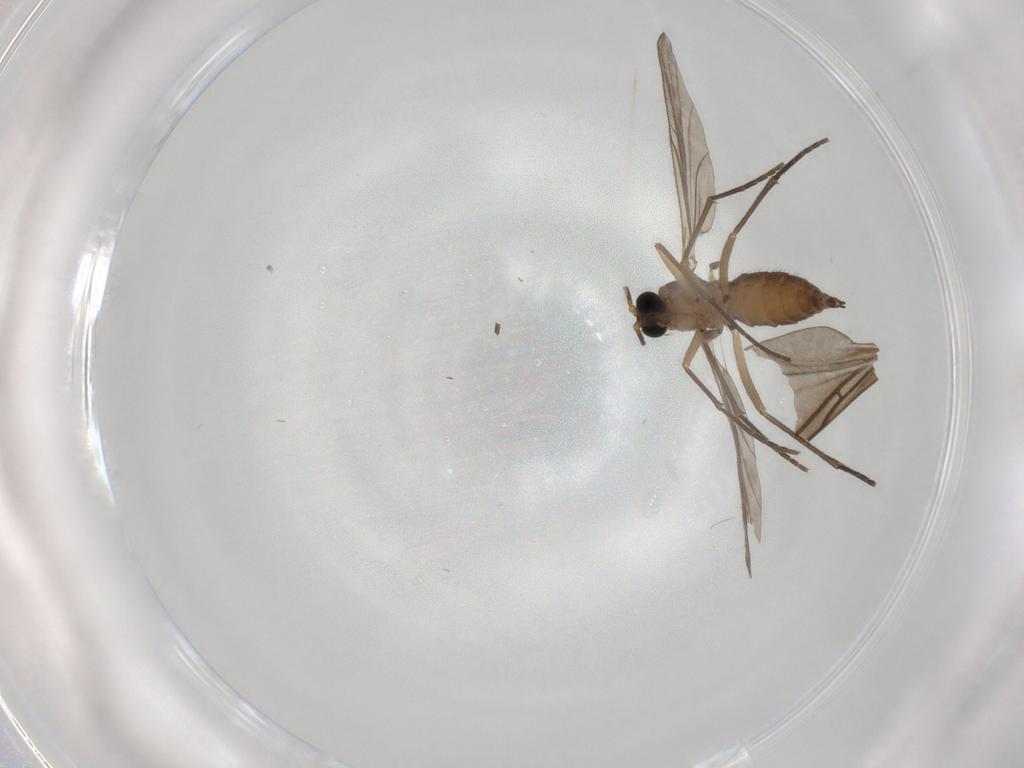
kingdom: Animalia
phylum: Arthropoda
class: Insecta
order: Diptera
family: Sciaridae
